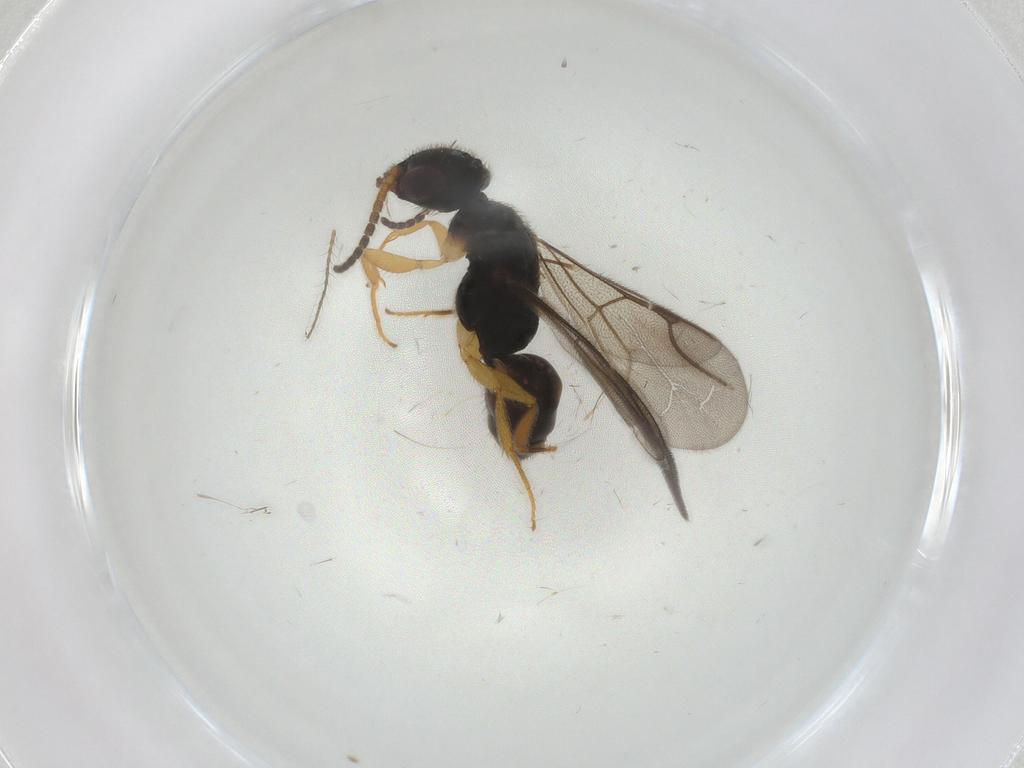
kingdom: Animalia
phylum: Arthropoda
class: Insecta
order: Hymenoptera
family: Bethylidae
